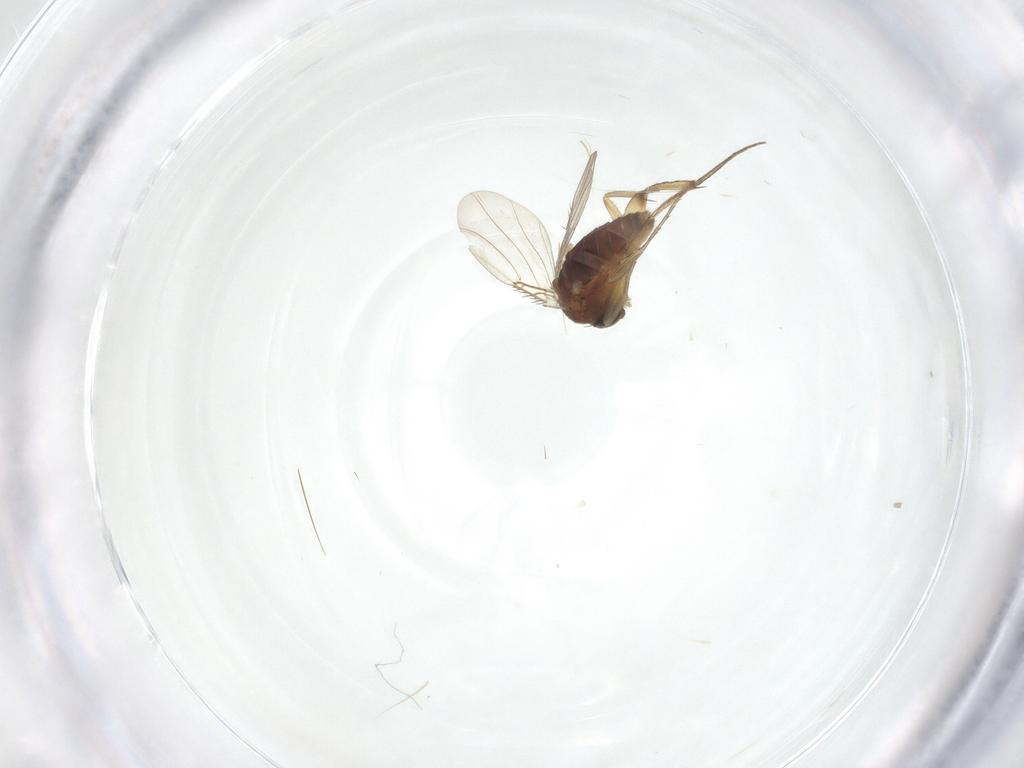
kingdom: Animalia
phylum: Arthropoda
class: Insecta
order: Diptera
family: Phoridae
